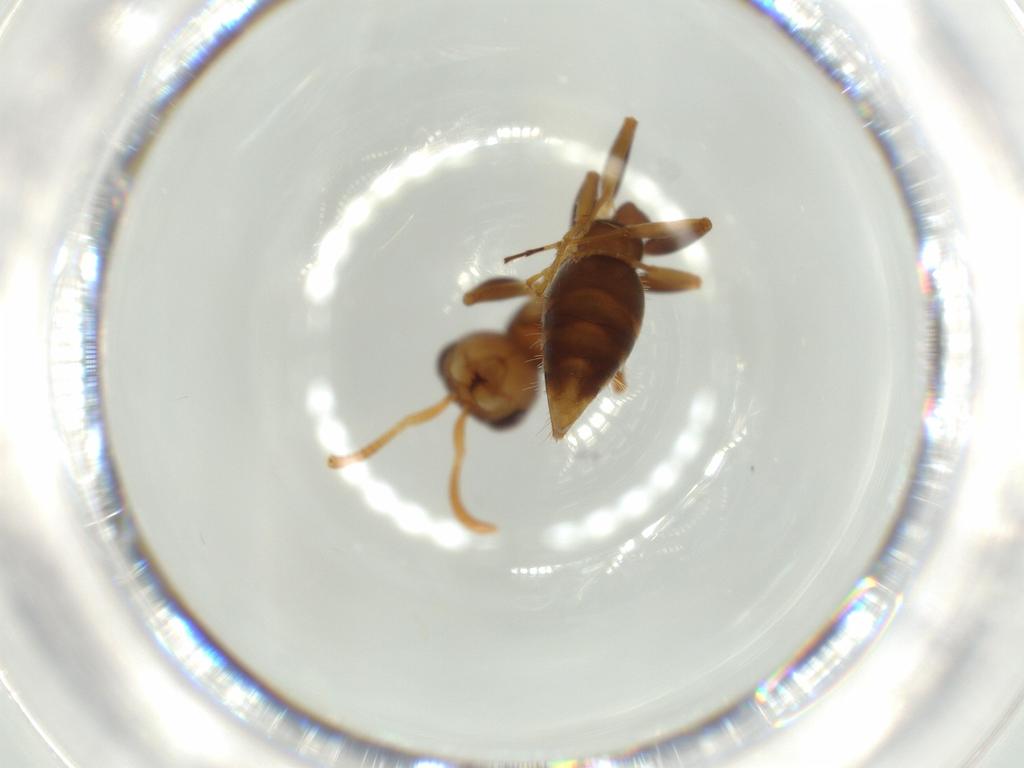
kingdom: Animalia
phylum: Arthropoda
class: Insecta
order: Hymenoptera
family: Formicidae
